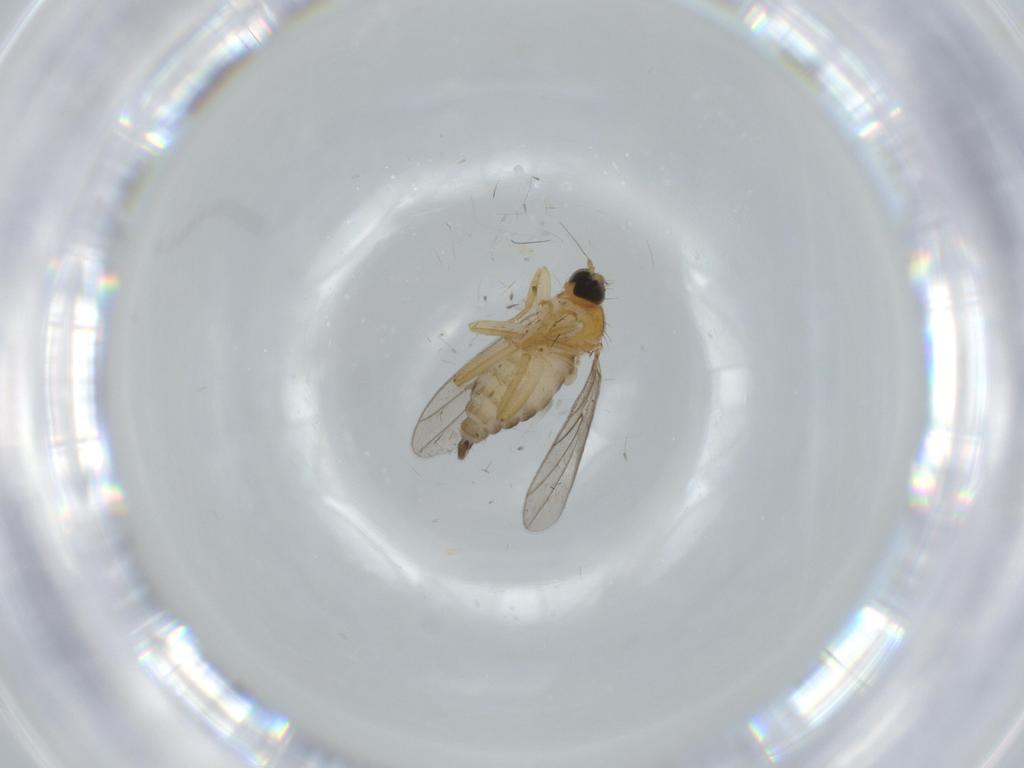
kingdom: Animalia
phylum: Arthropoda
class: Insecta
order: Diptera
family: Hybotidae
